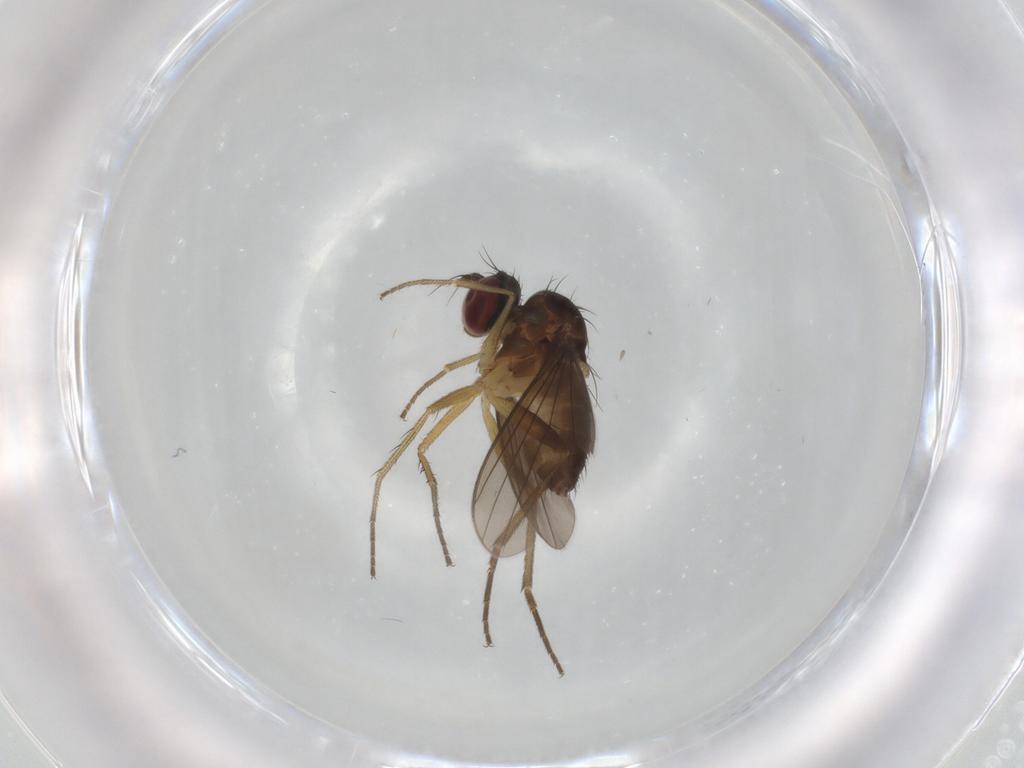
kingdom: Animalia
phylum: Arthropoda
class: Insecta
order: Diptera
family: Dolichopodidae
